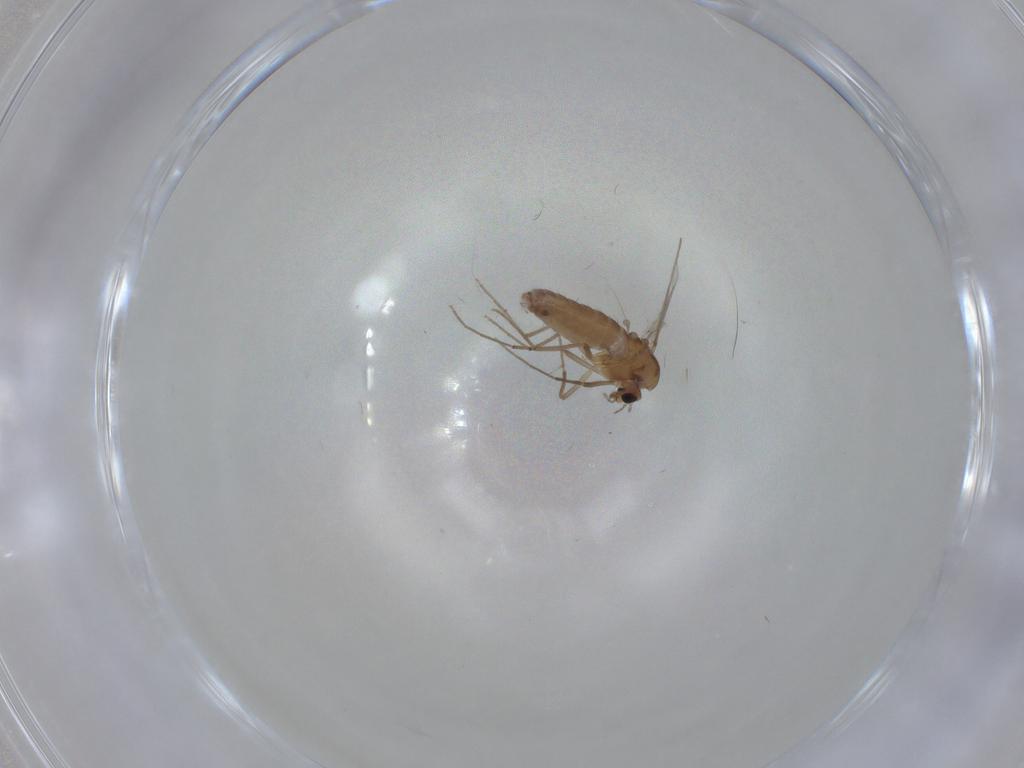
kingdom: Animalia
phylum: Arthropoda
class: Insecta
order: Diptera
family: Chironomidae
